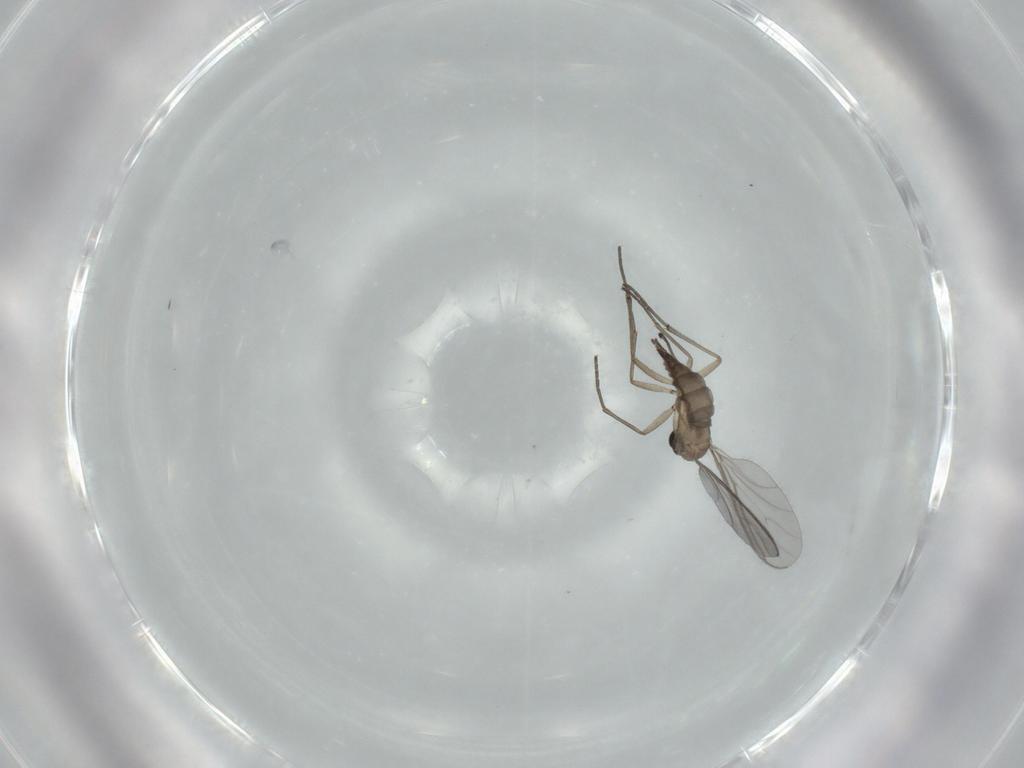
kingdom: Animalia
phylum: Arthropoda
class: Insecta
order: Diptera
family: Sciaridae
